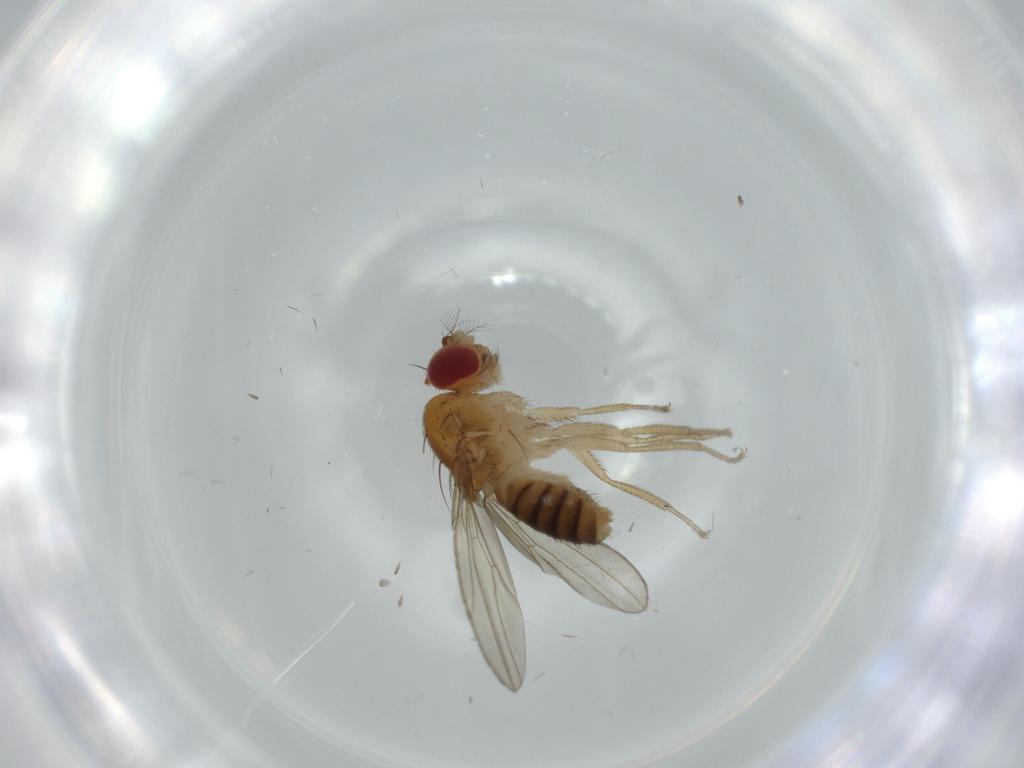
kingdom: Animalia
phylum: Arthropoda
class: Insecta
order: Diptera
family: Drosophilidae
